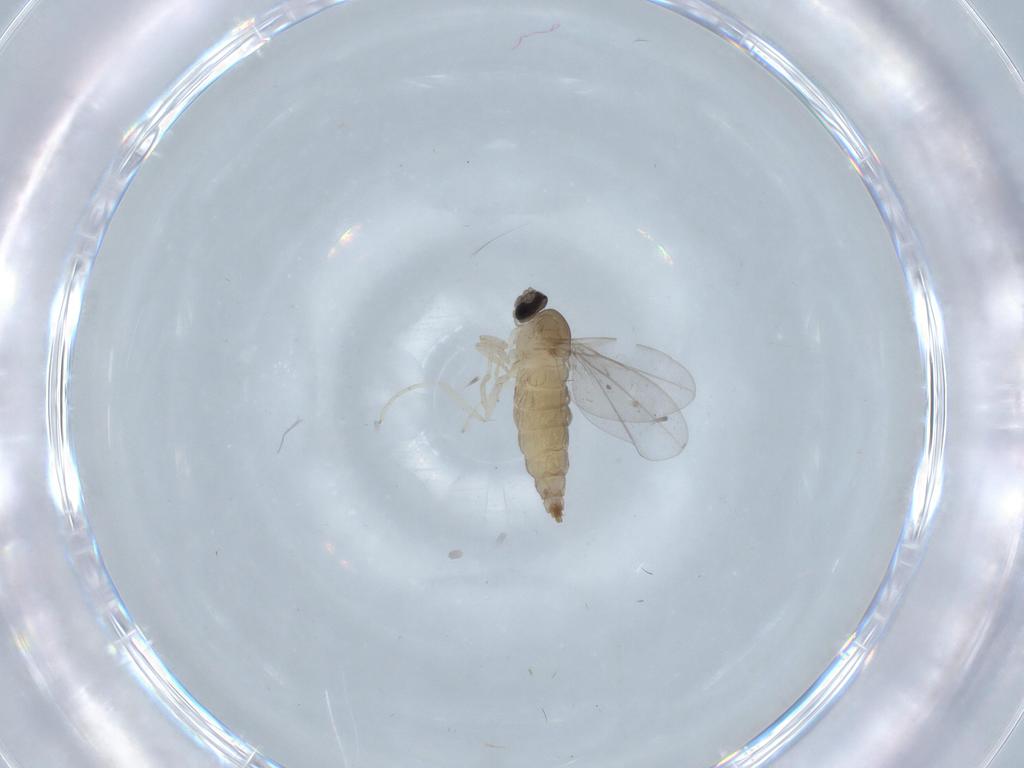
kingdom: Animalia
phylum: Arthropoda
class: Insecta
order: Diptera
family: Cecidomyiidae
